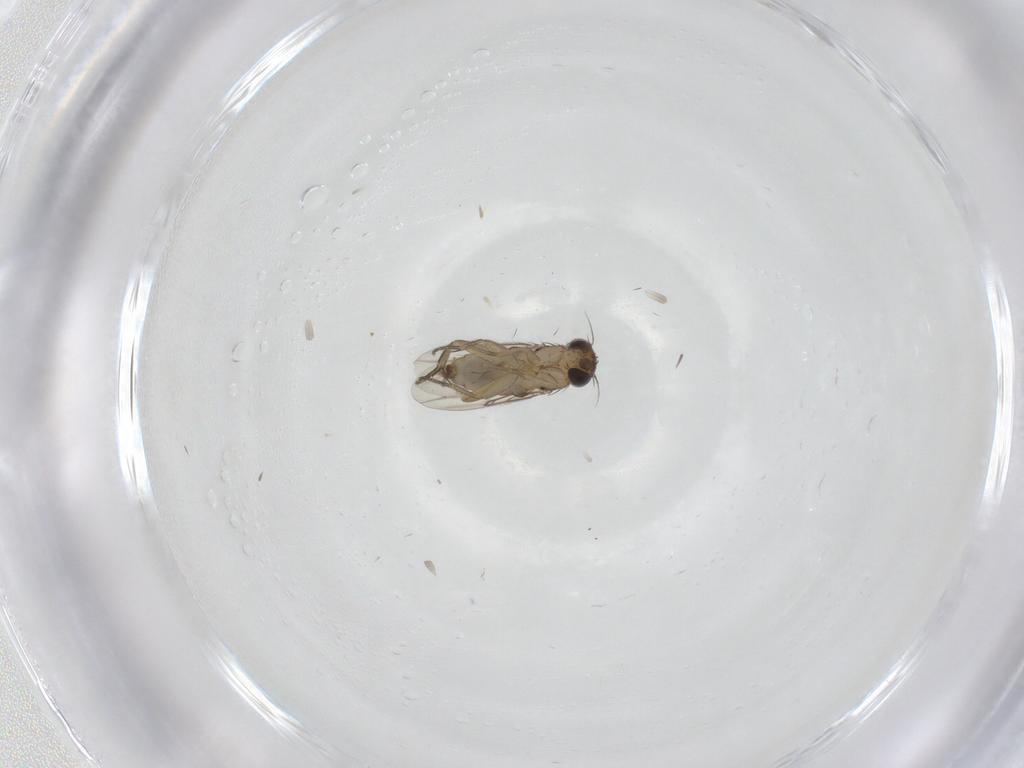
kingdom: Animalia
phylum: Arthropoda
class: Insecta
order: Diptera
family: Phoridae
